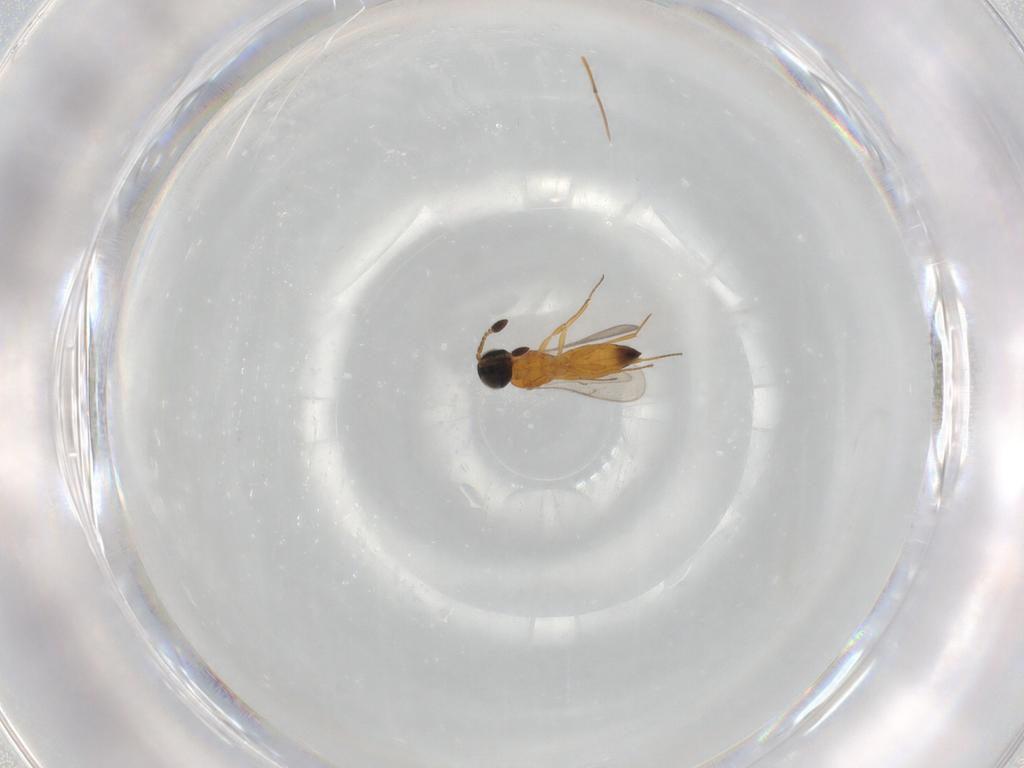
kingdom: Animalia
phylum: Arthropoda
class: Insecta
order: Hymenoptera
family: Scelionidae
